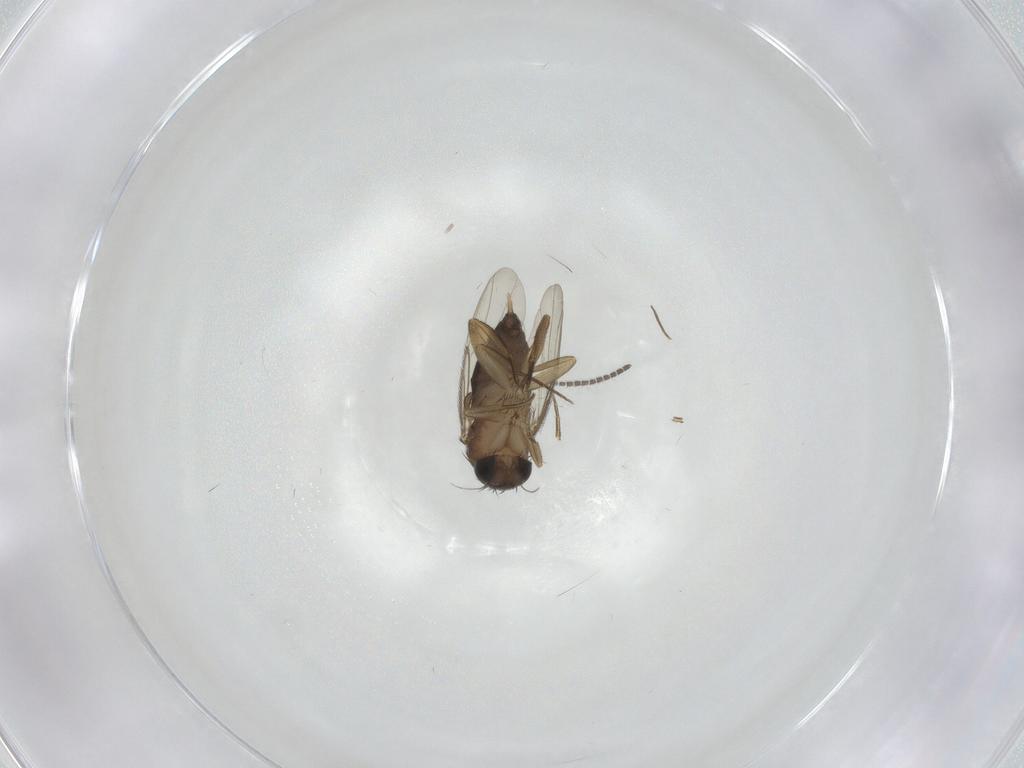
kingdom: Animalia
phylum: Arthropoda
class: Insecta
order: Diptera
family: Phoridae
